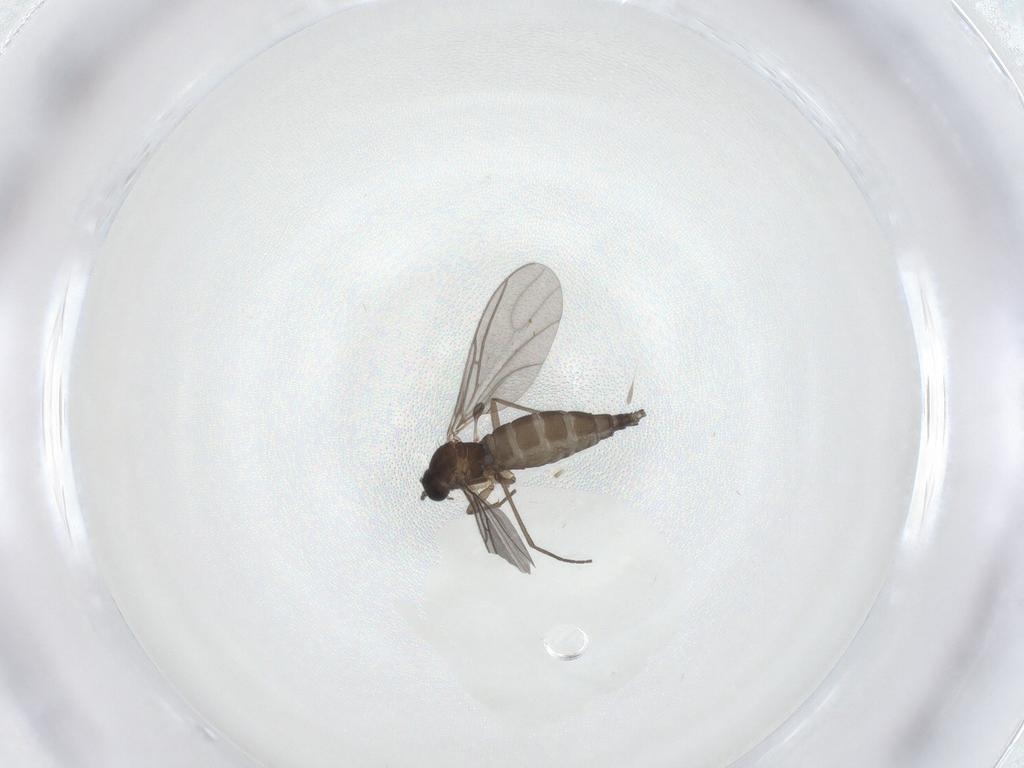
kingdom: Animalia
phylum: Arthropoda
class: Insecta
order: Diptera
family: Sciaridae
